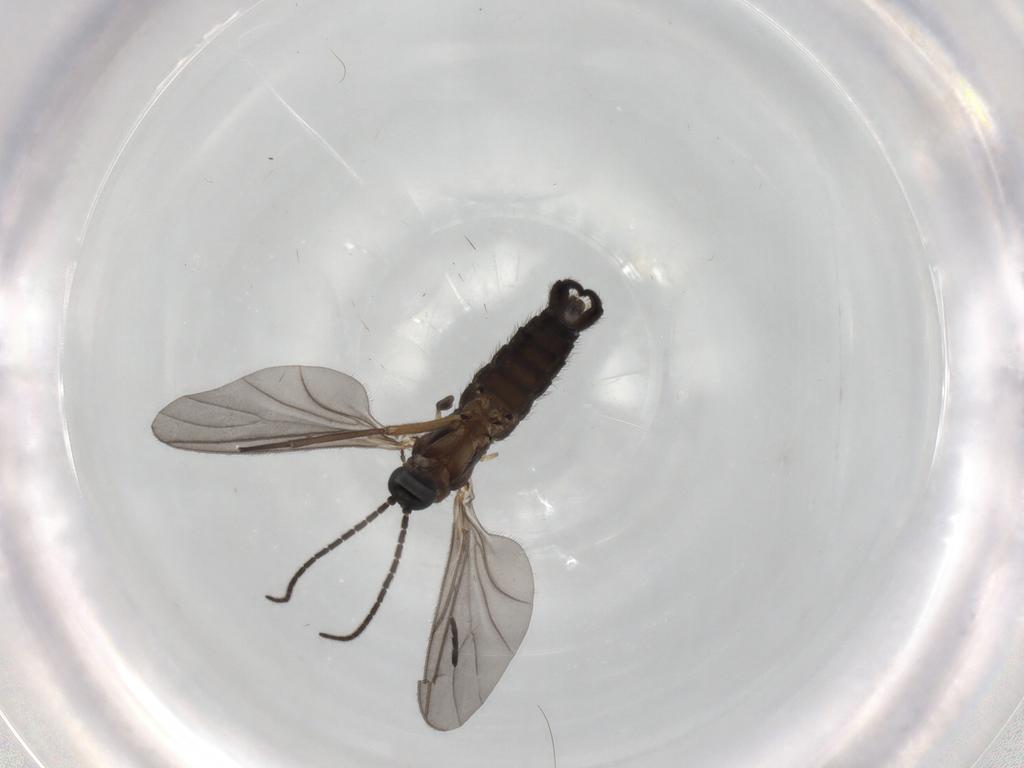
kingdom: Animalia
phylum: Arthropoda
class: Insecta
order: Diptera
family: Sciaridae
